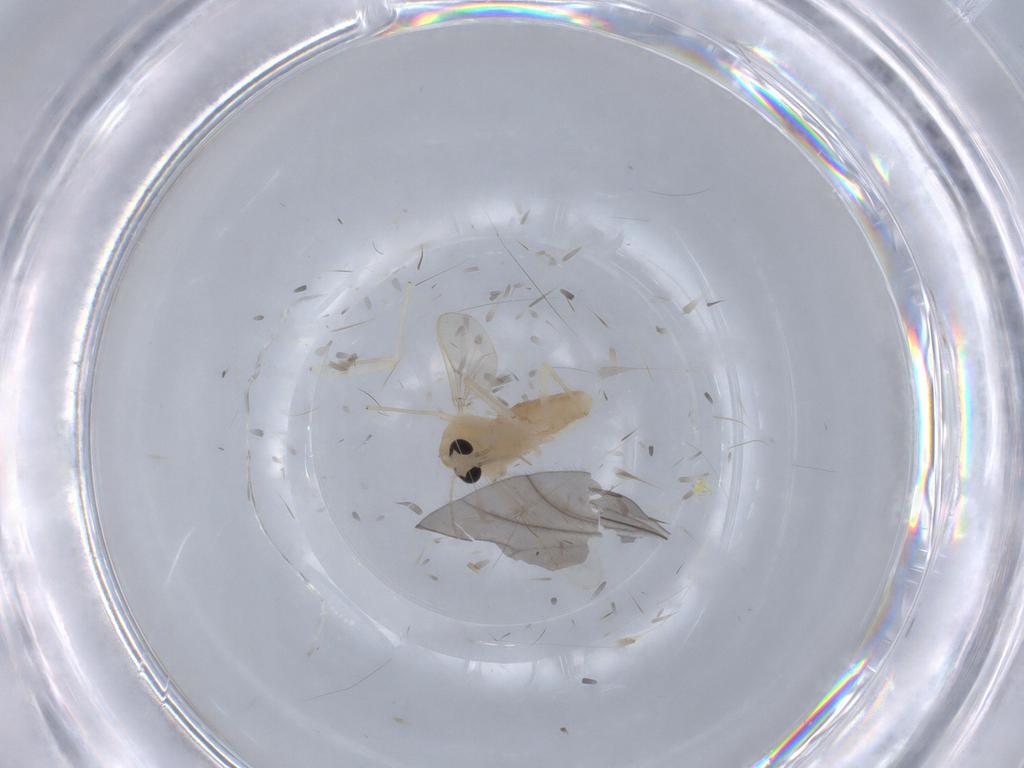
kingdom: Animalia
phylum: Arthropoda
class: Insecta
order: Diptera
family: Chironomidae
